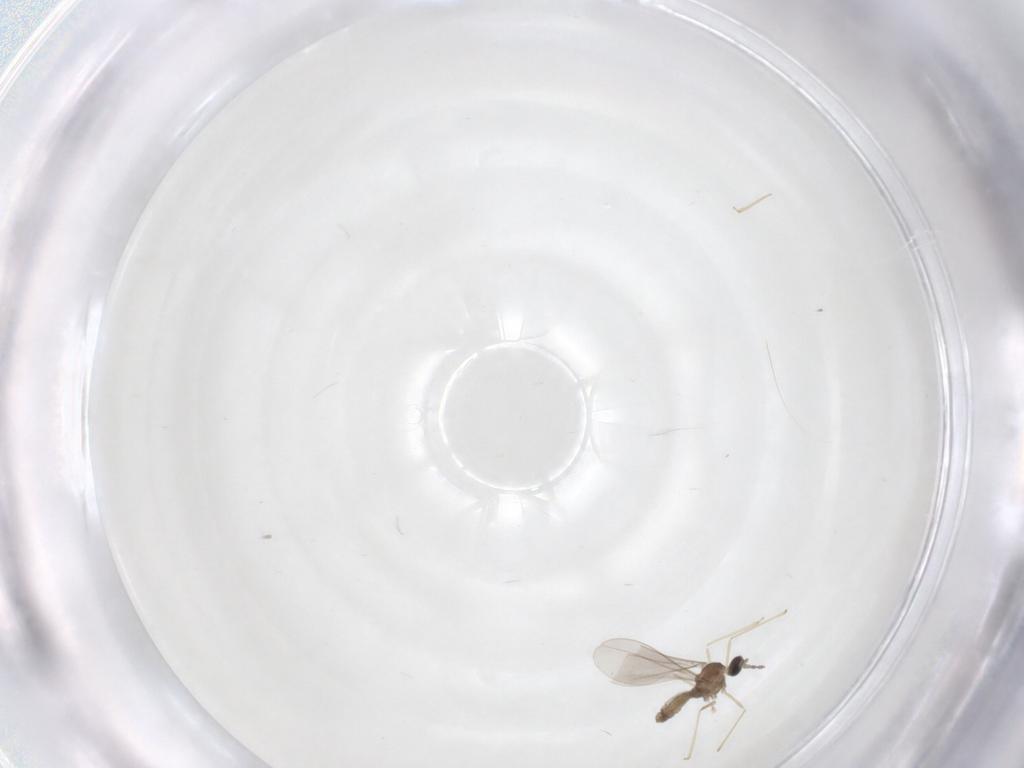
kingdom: Animalia
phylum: Arthropoda
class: Insecta
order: Diptera
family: Phoridae
